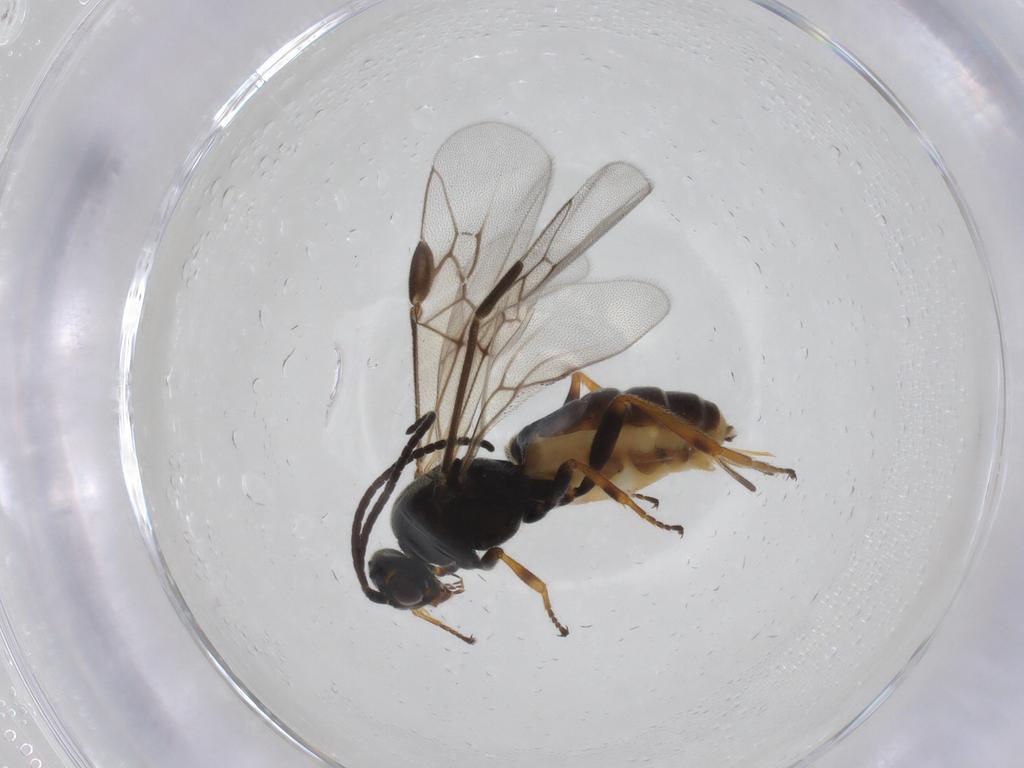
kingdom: Animalia
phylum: Arthropoda
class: Insecta
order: Hymenoptera
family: Braconidae
